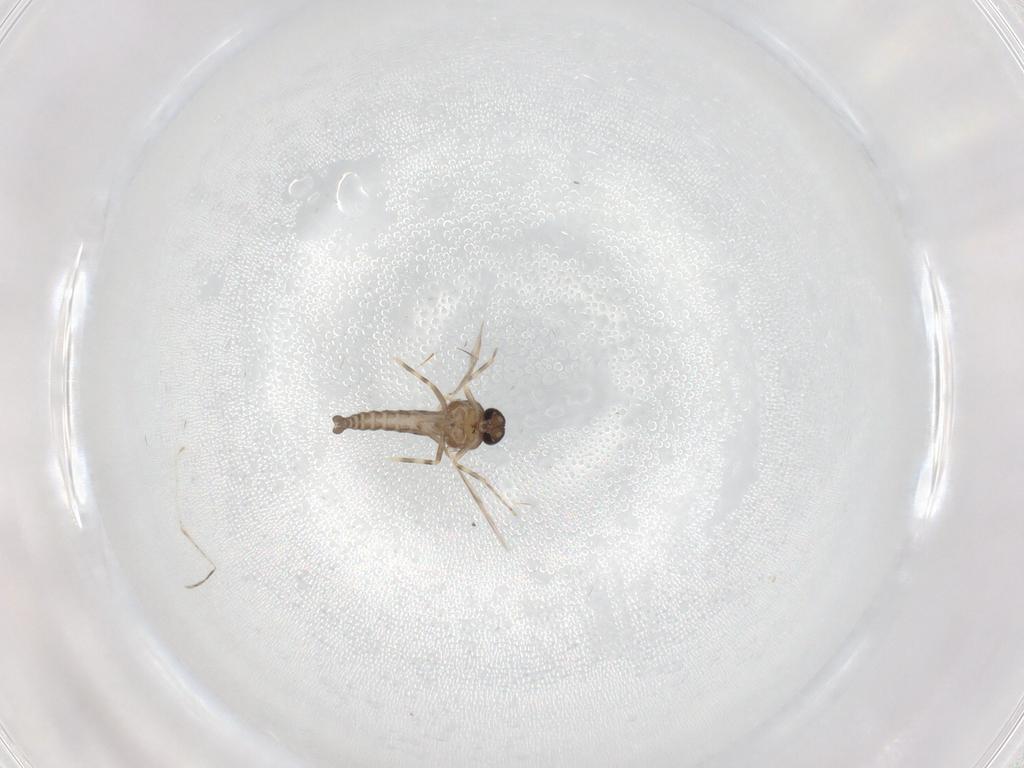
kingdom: Animalia
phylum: Arthropoda
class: Insecta
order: Diptera
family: Ceratopogonidae
